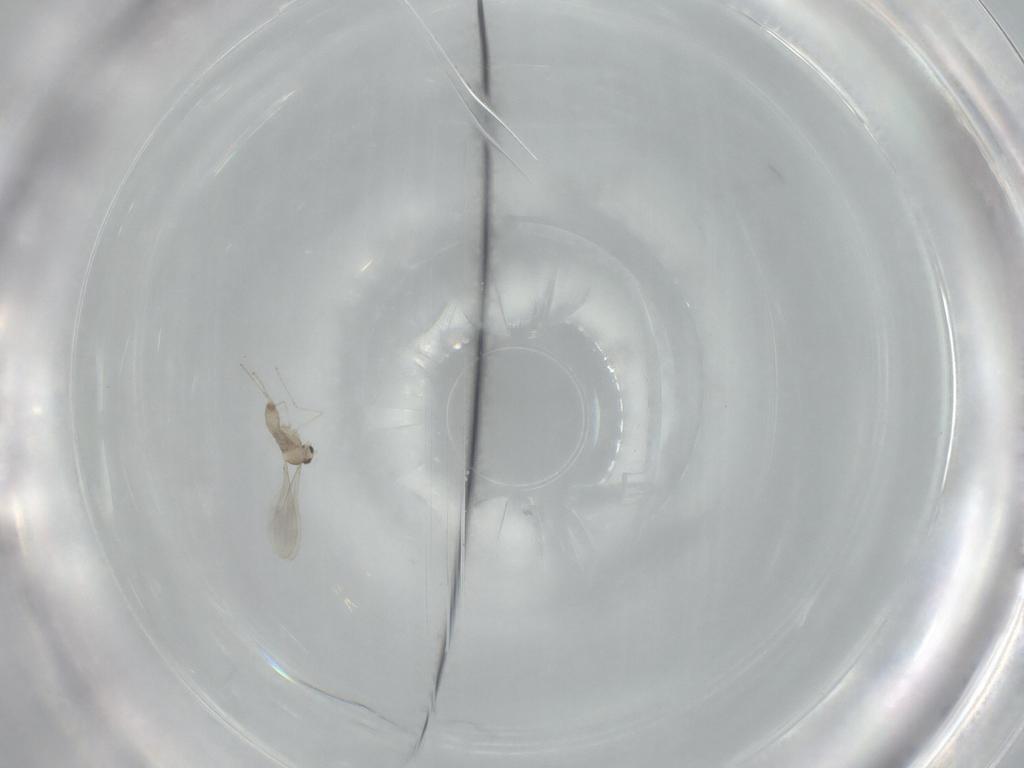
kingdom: Animalia
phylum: Arthropoda
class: Insecta
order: Diptera
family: Cecidomyiidae
